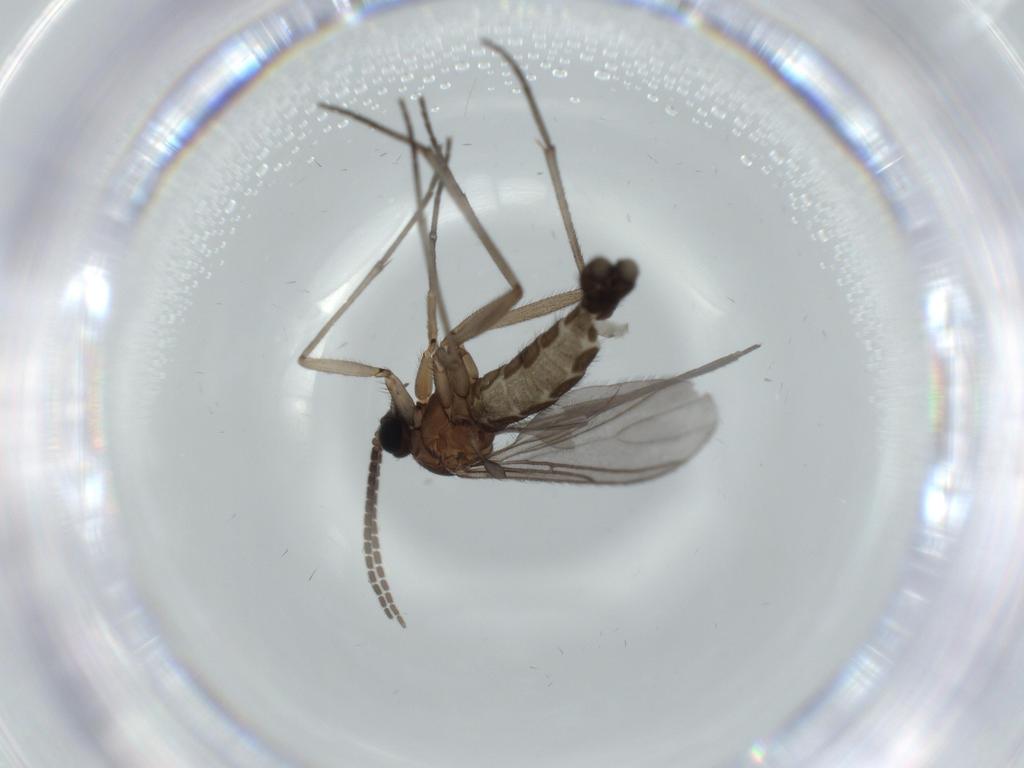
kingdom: Animalia
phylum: Arthropoda
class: Insecta
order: Diptera
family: Sciaridae
